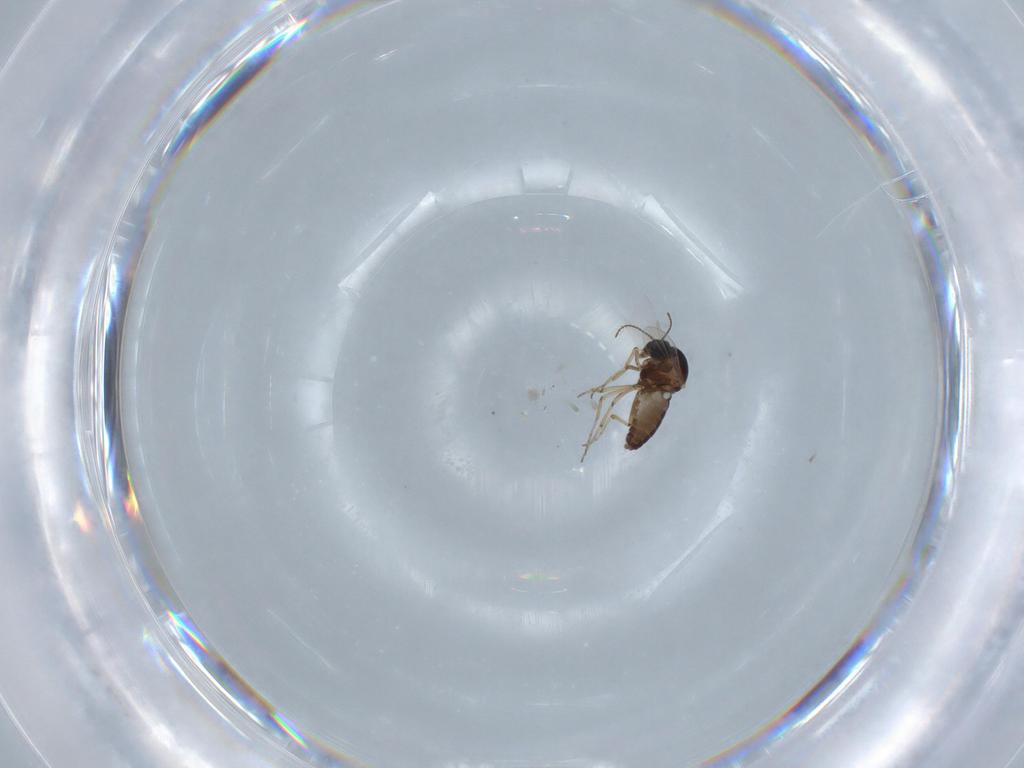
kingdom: Animalia
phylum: Arthropoda
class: Insecta
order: Diptera
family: Ceratopogonidae
